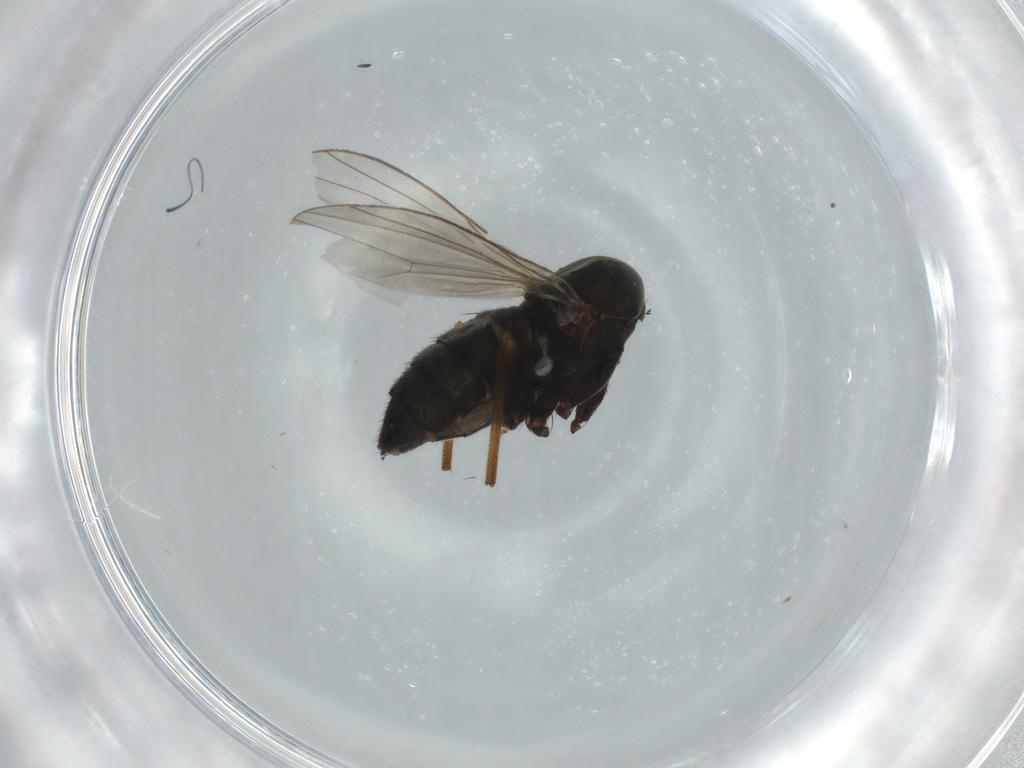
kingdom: Animalia
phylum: Arthropoda
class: Insecta
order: Diptera
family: Dolichopodidae
